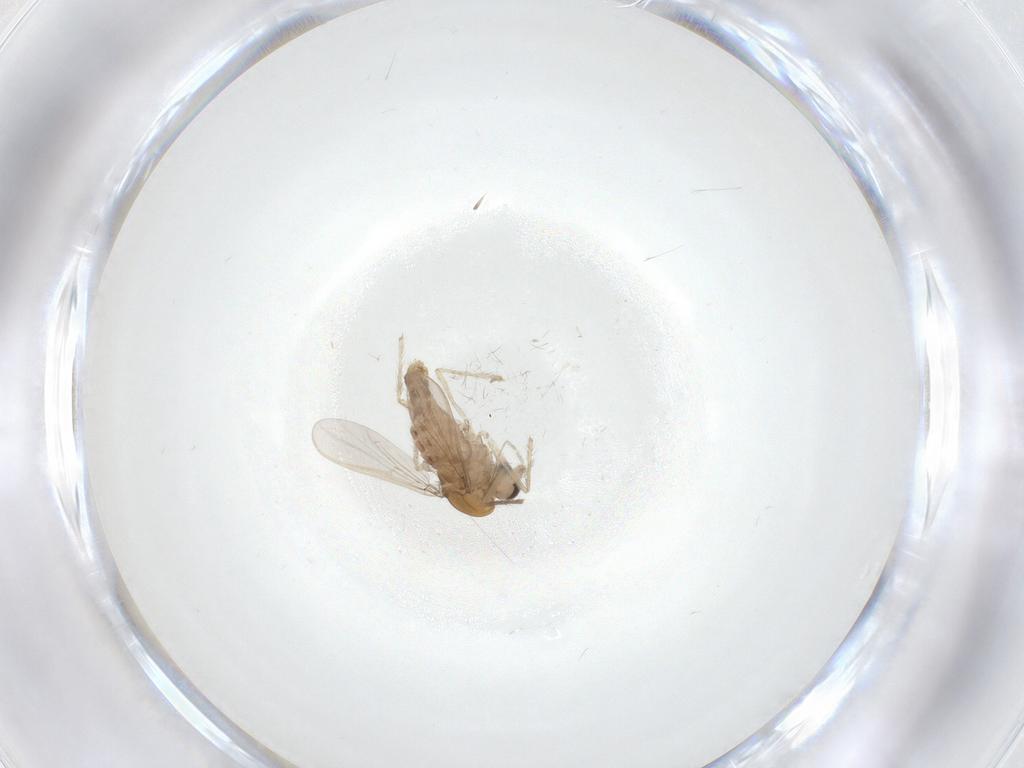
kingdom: Animalia
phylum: Arthropoda
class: Insecta
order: Diptera
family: Chironomidae
